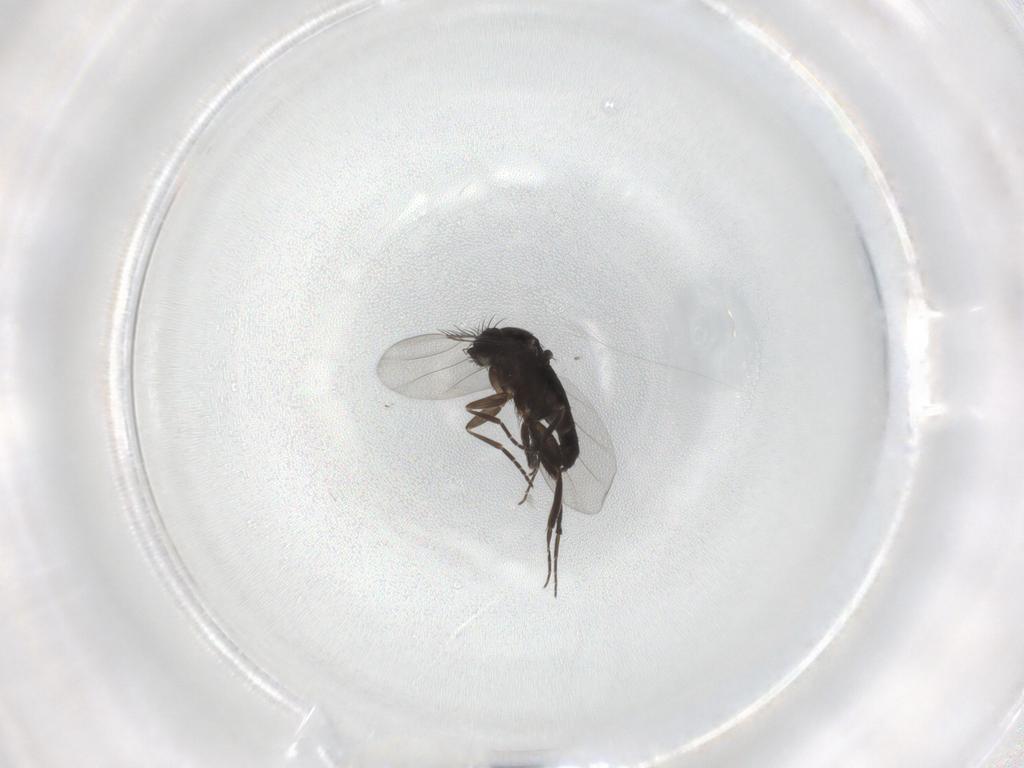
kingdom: Animalia
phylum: Arthropoda
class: Insecta
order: Diptera
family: Phoridae
